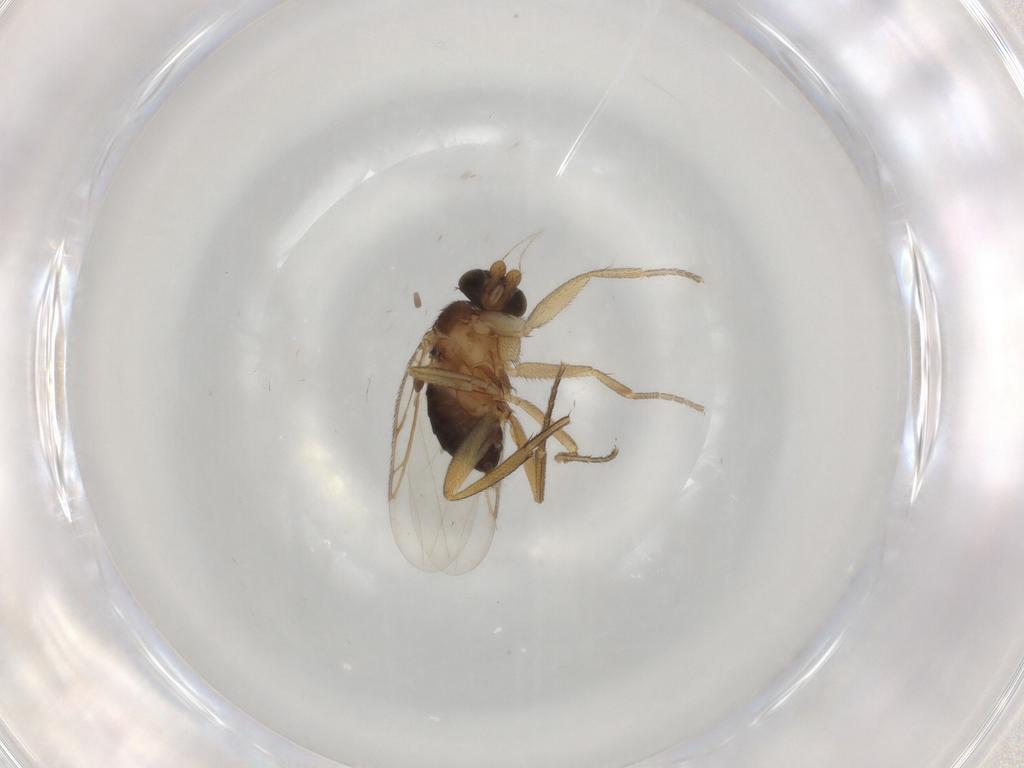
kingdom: Animalia
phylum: Arthropoda
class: Insecta
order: Diptera
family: Phoridae
